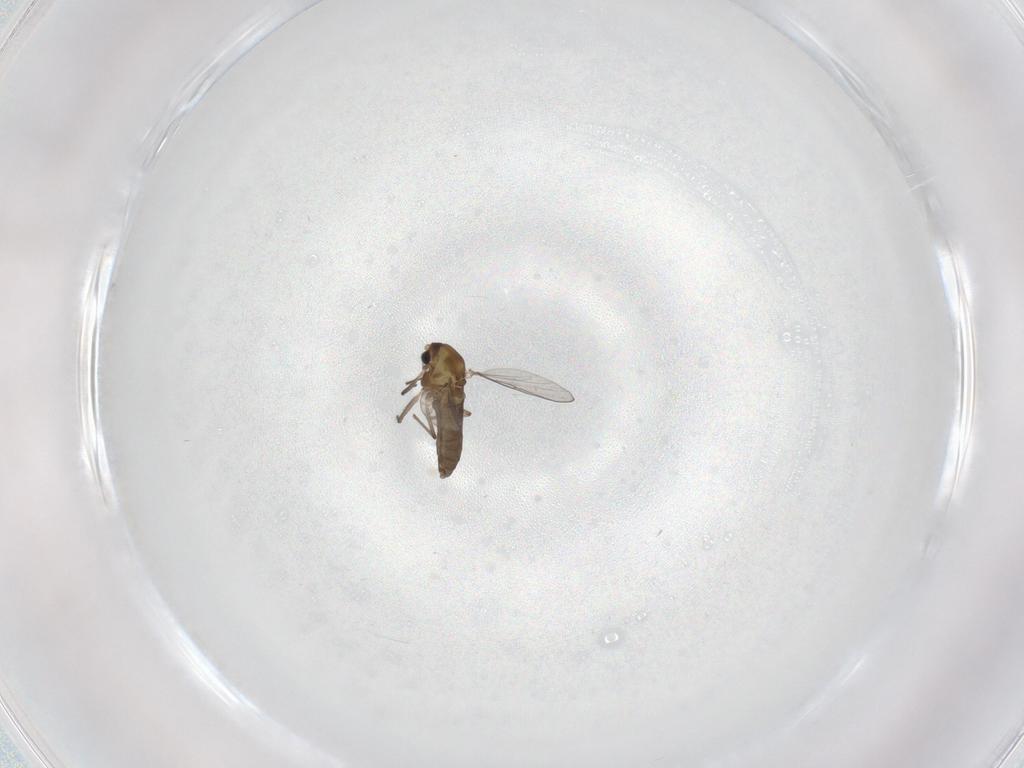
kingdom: Animalia
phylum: Arthropoda
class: Insecta
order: Diptera
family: Chironomidae
